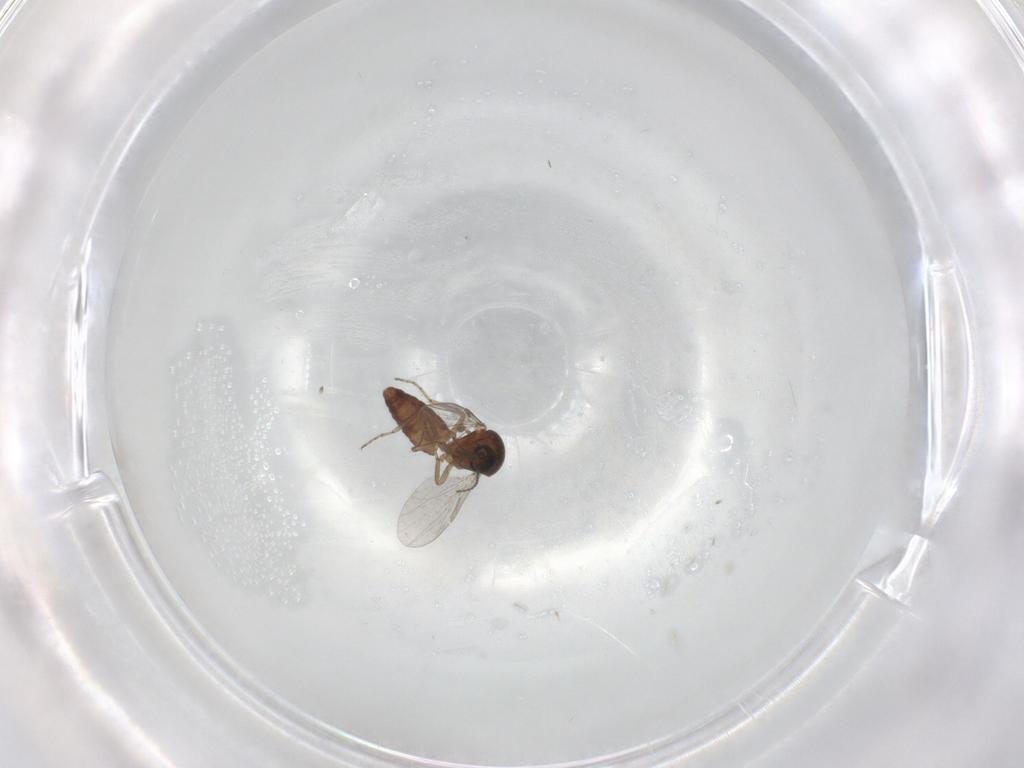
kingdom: Animalia
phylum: Arthropoda
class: Insecta
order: Diptera
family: Ceratopogonidae
